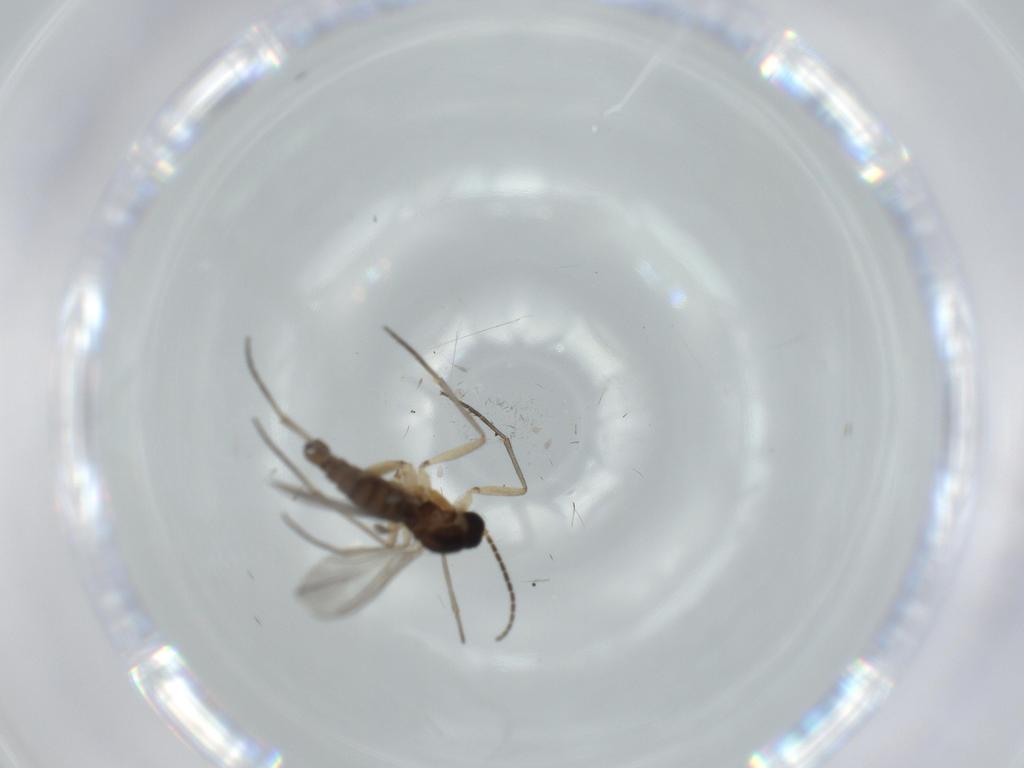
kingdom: Animalia
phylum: Arthropoda
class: Insecta
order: Diptera
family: Sciaridae
